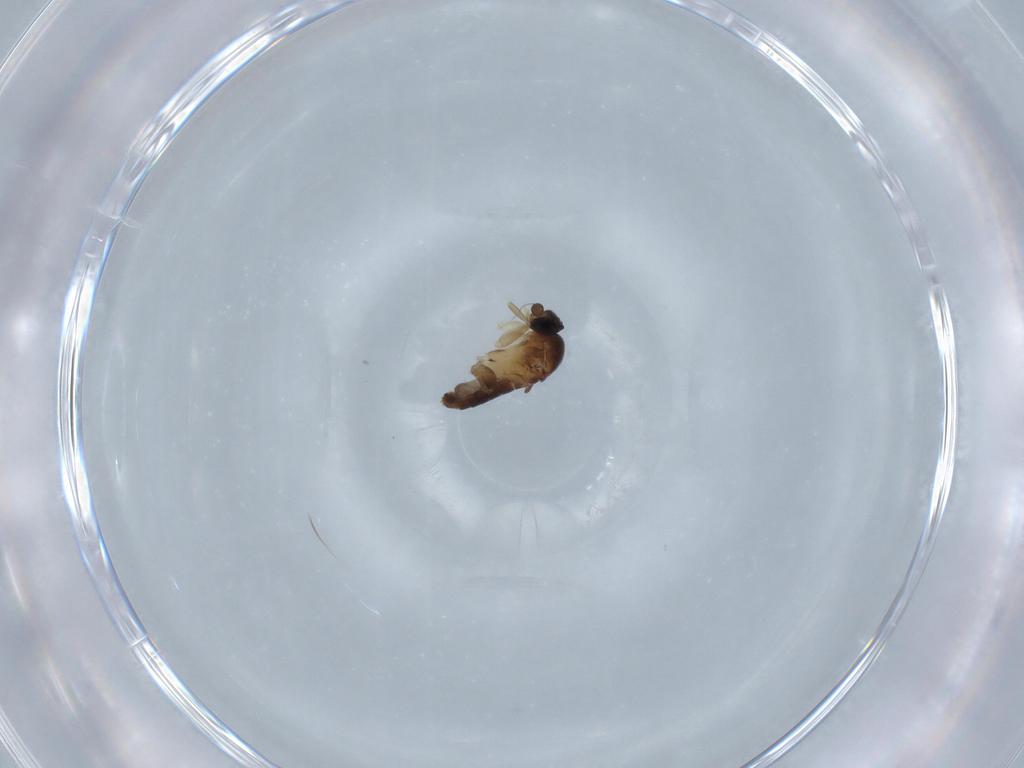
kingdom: Animalia
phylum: Arthropoda
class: Insecta
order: Diptera
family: Phoridae
